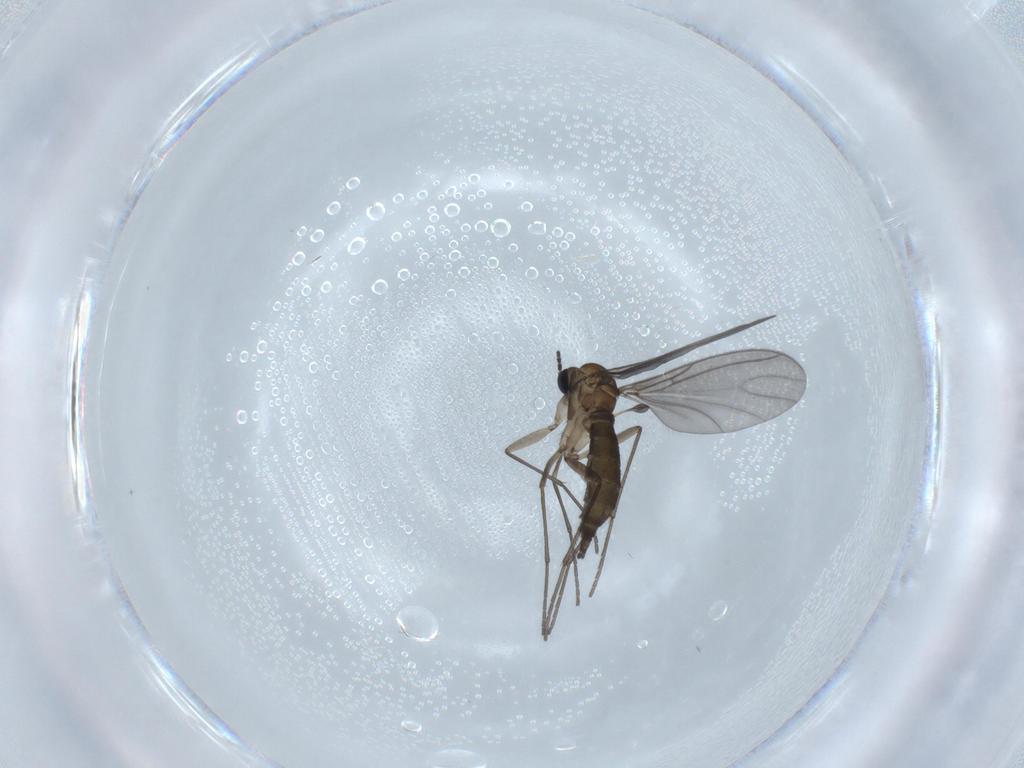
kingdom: Animalia
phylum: Arthropoda
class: Insecta
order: Diptera
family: Sciaridae
